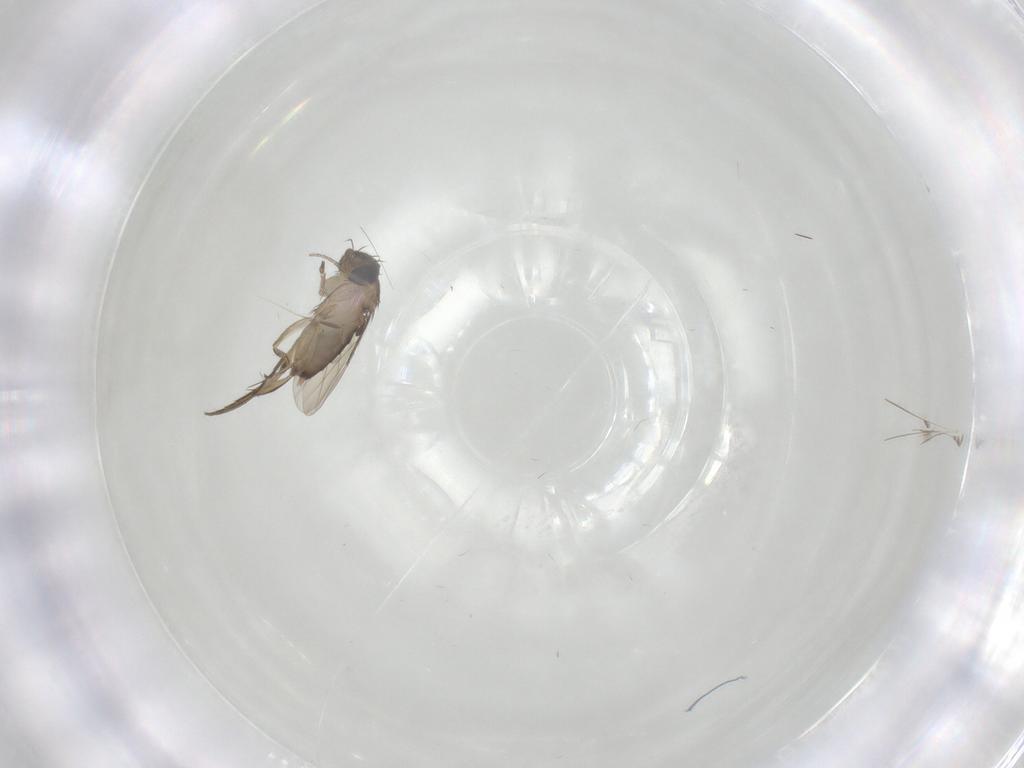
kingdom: Animalia
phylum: Arthropoda
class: Insecta
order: Diptera
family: Phoridae
